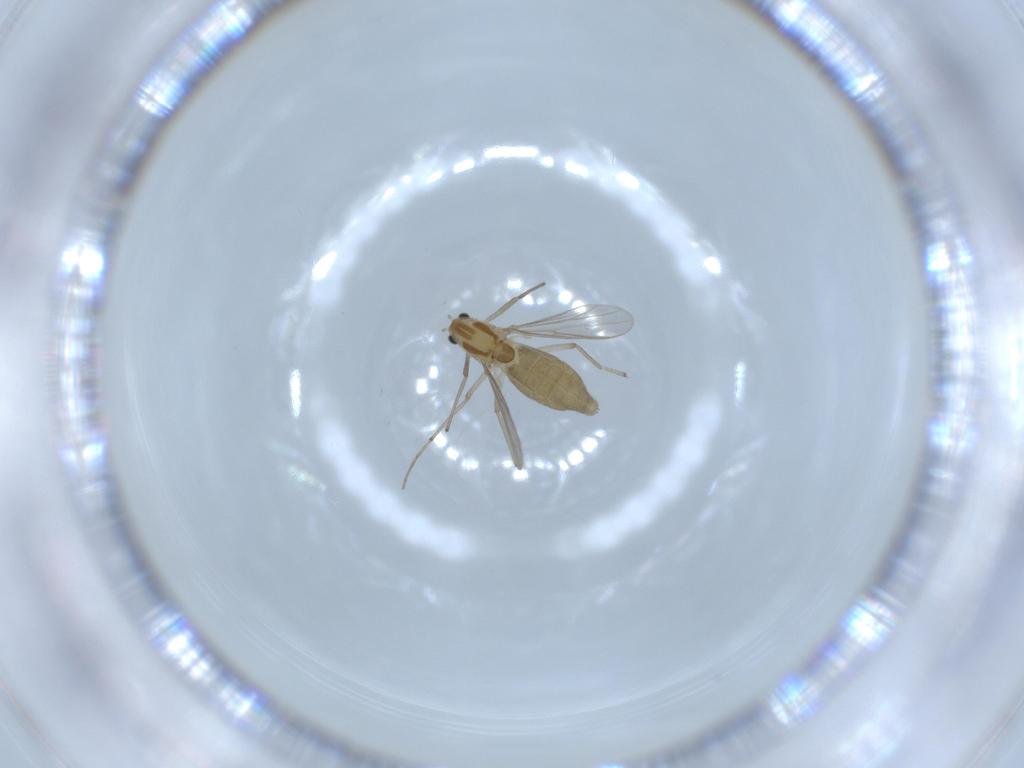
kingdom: Animalia
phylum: Arthropoda
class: Insecta
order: Diptera
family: Chironomidae
